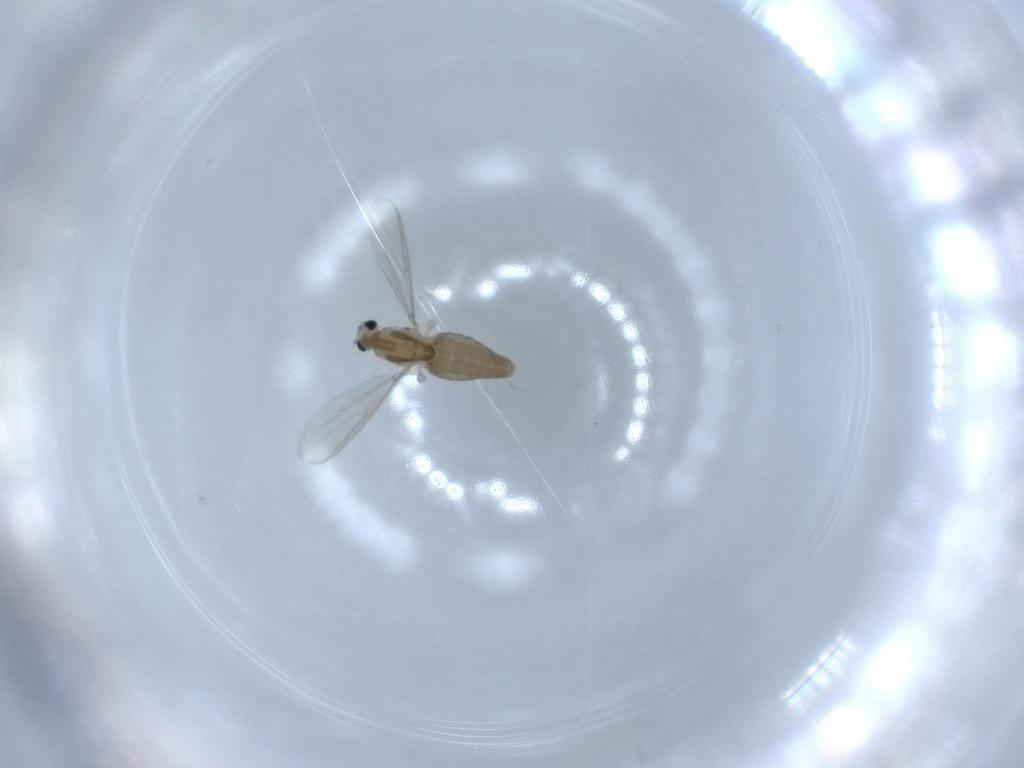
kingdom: Animalia
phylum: Arthropoda
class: Insecta
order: Diptera
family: Chironomidae
